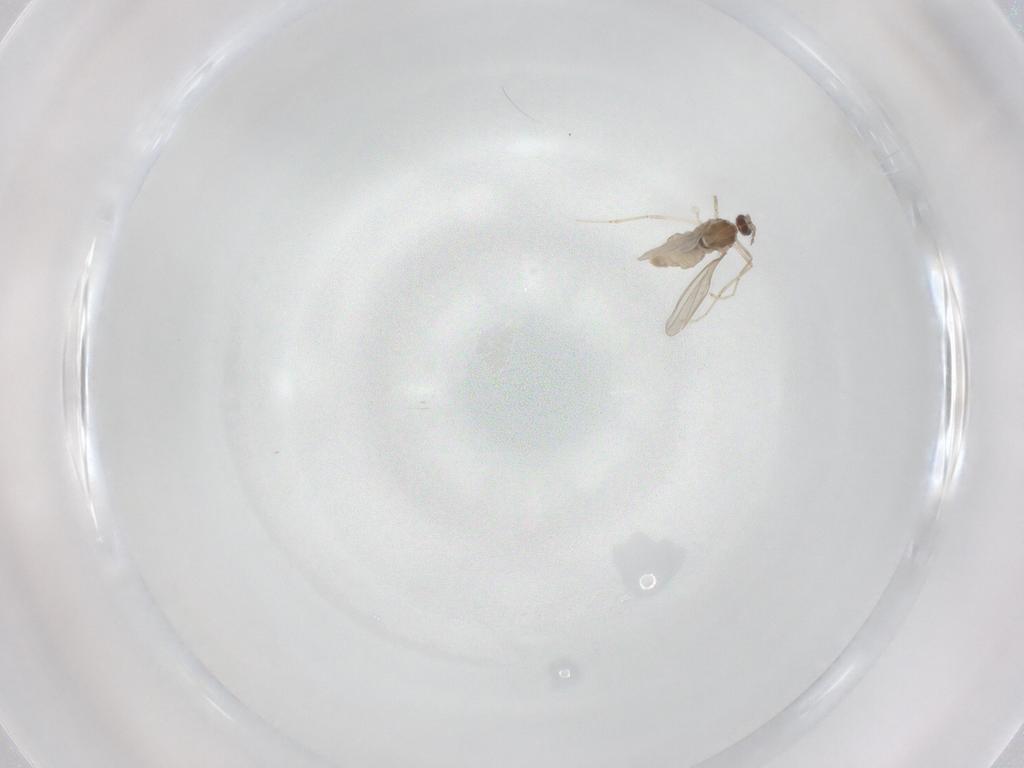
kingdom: Animalia
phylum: Arthropoda
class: Insecta
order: Diptera
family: Cecidomyiidae
